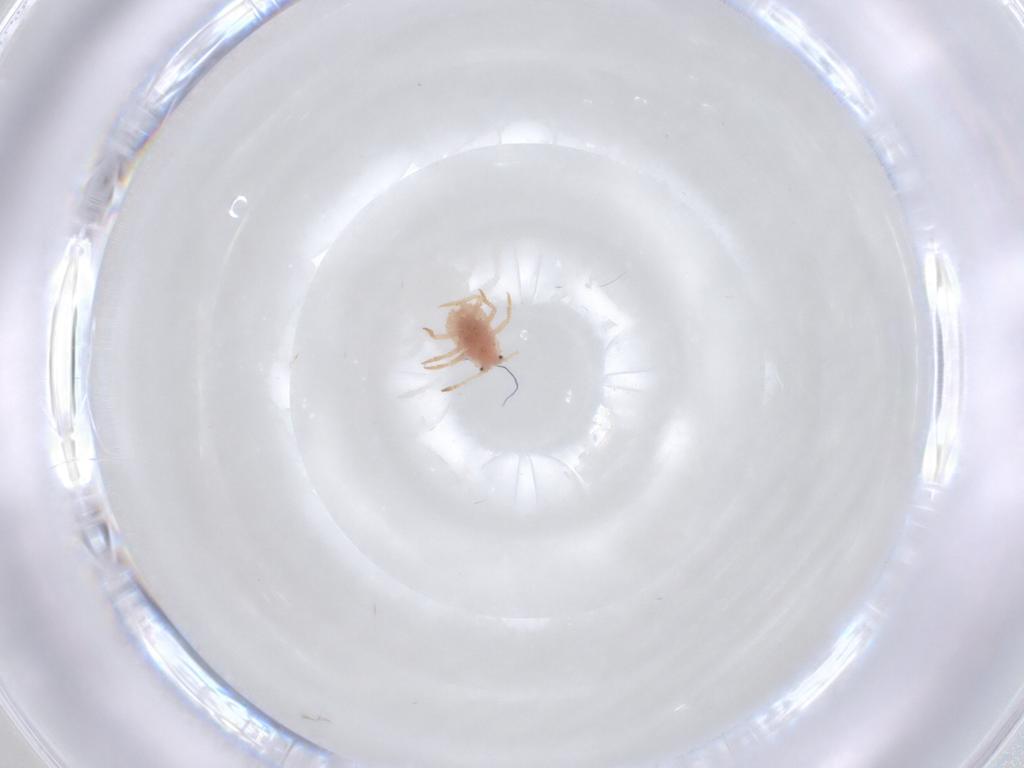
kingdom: Animalia
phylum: Arthropoda
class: Insecta
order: Hemiptera
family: Coccoidea_incertae_sedis
